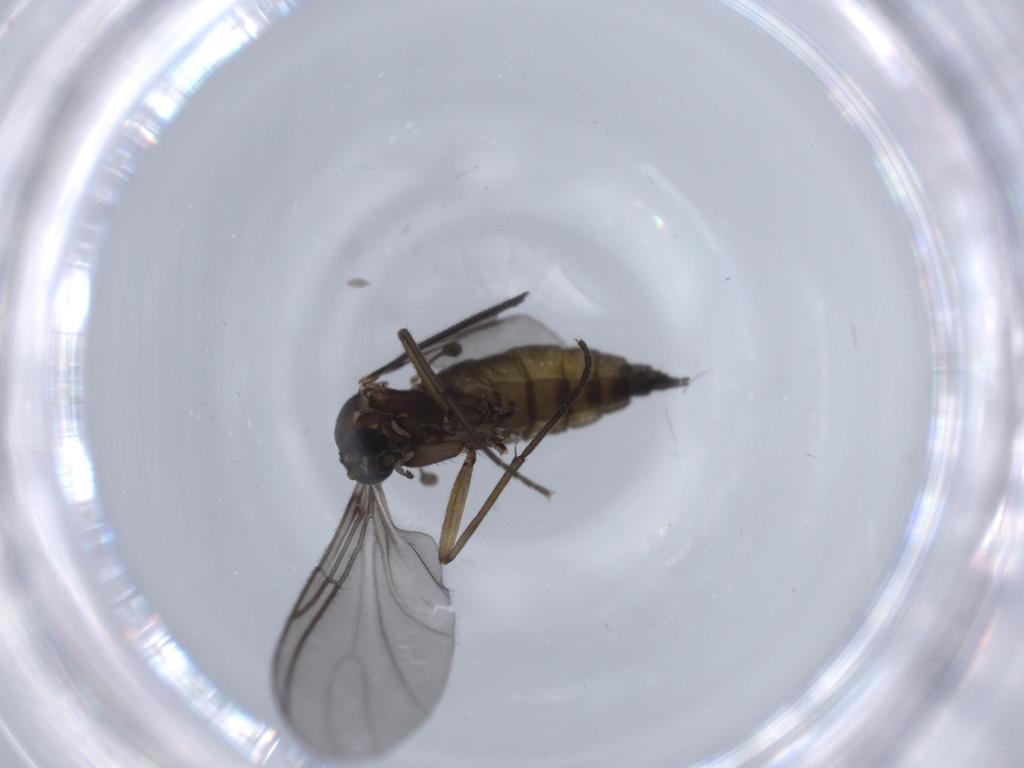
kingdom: Animalia
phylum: Arthropoda
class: Insecta
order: Diptera
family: Sciaridae
